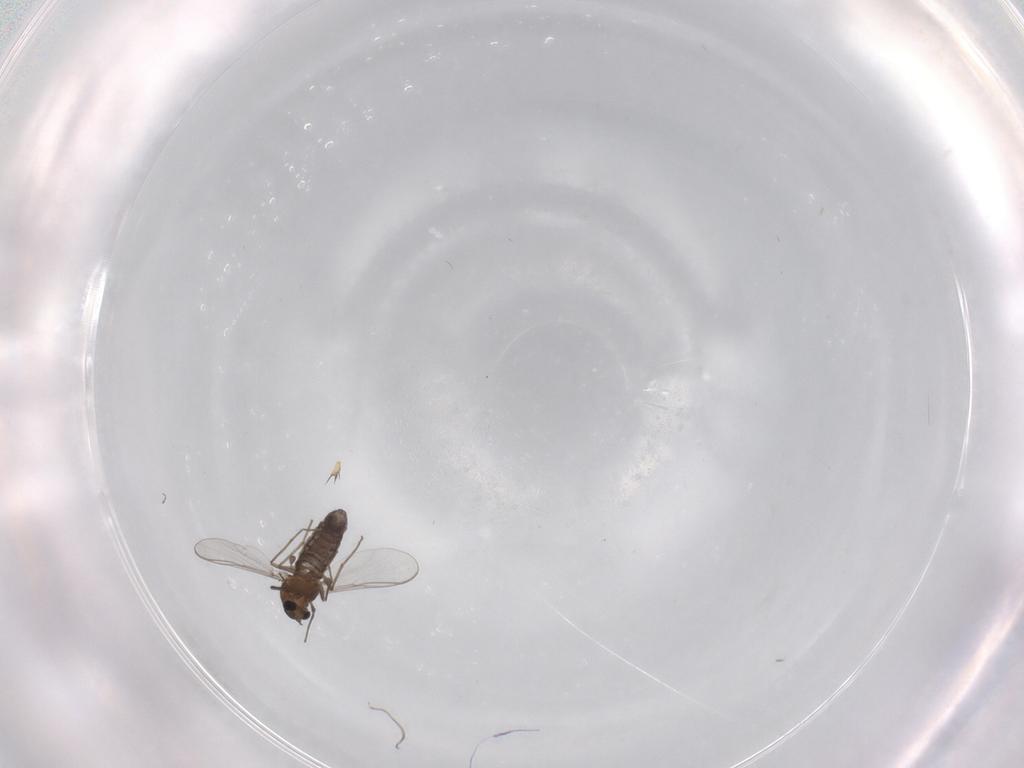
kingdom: Animalia
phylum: Arthropoda
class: Insecta
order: Diptera
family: Chironomidae
